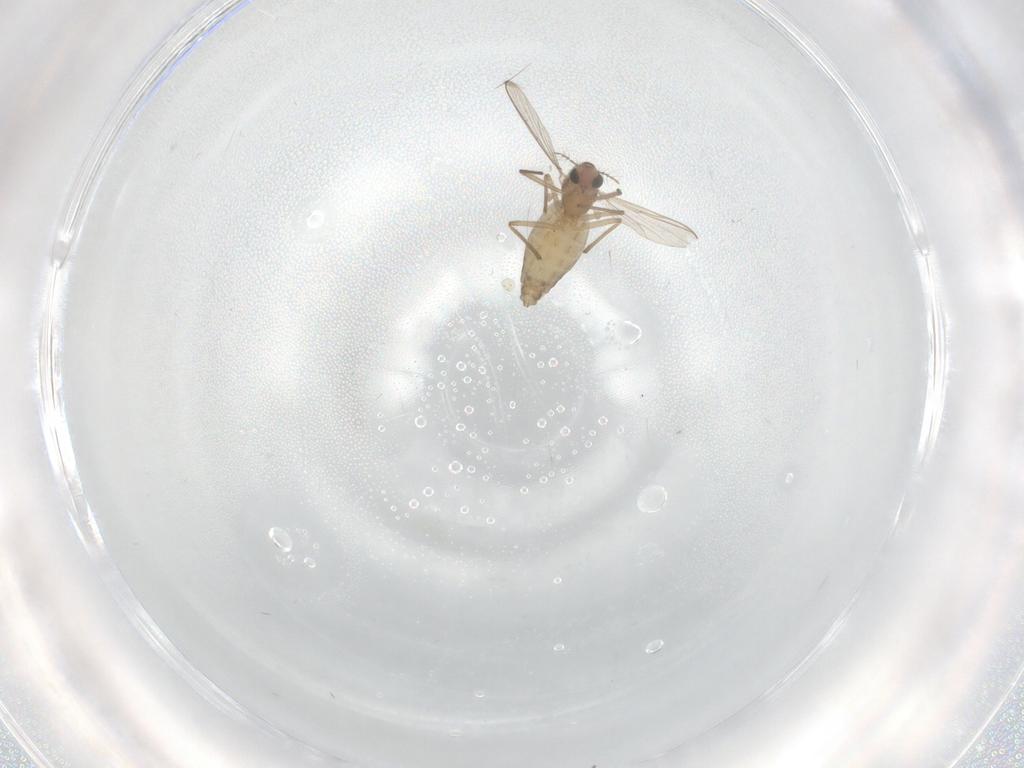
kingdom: Animalia
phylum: Arthropoda
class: Insecta
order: Diptera
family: Chironomidae
